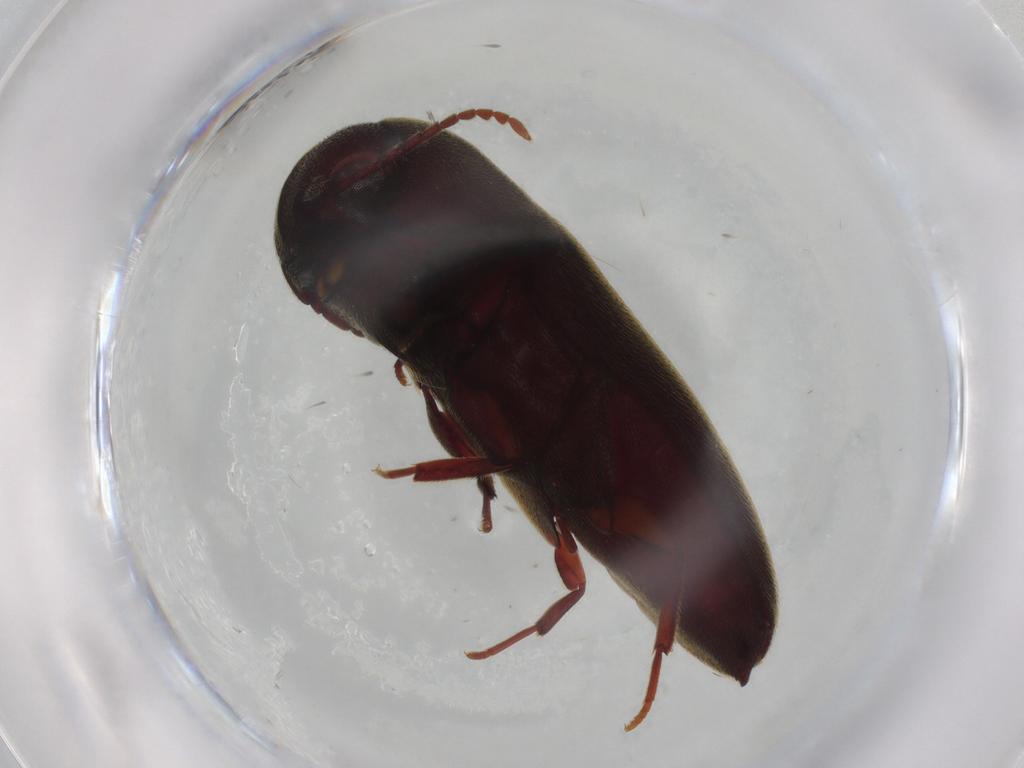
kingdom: Animalia
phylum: Arthropoda
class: Insecta
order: Coleoptera
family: Eucnemidae
